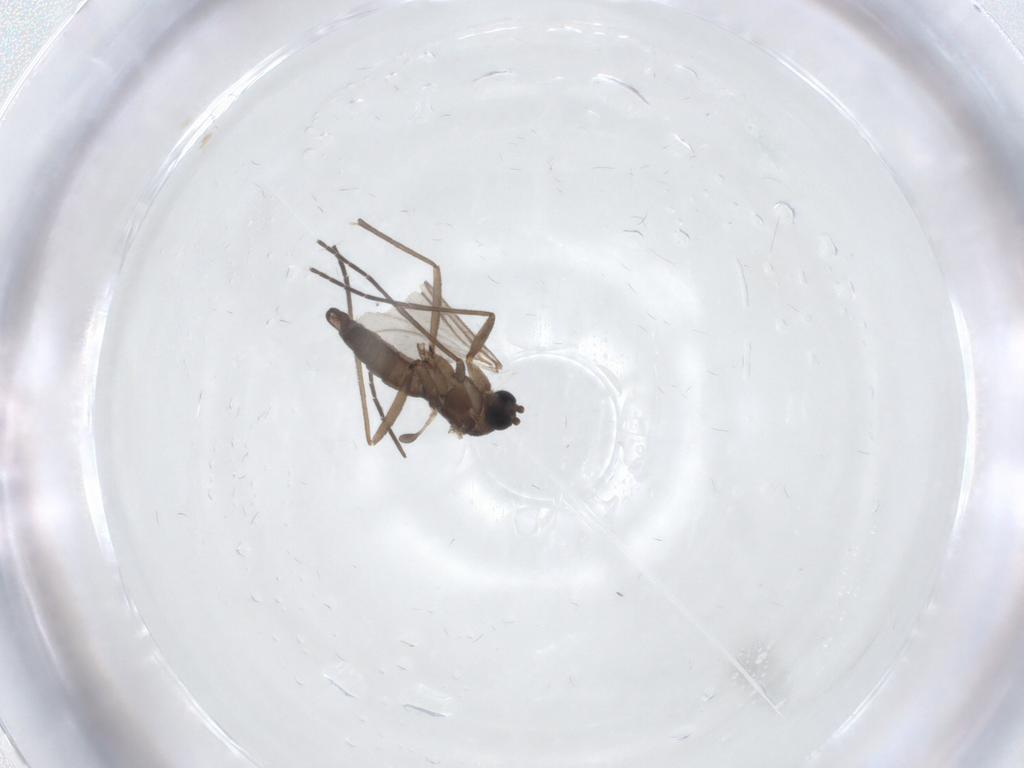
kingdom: Animalia
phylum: Arthropoda
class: Insecta
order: Diptera
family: Sciaridae
